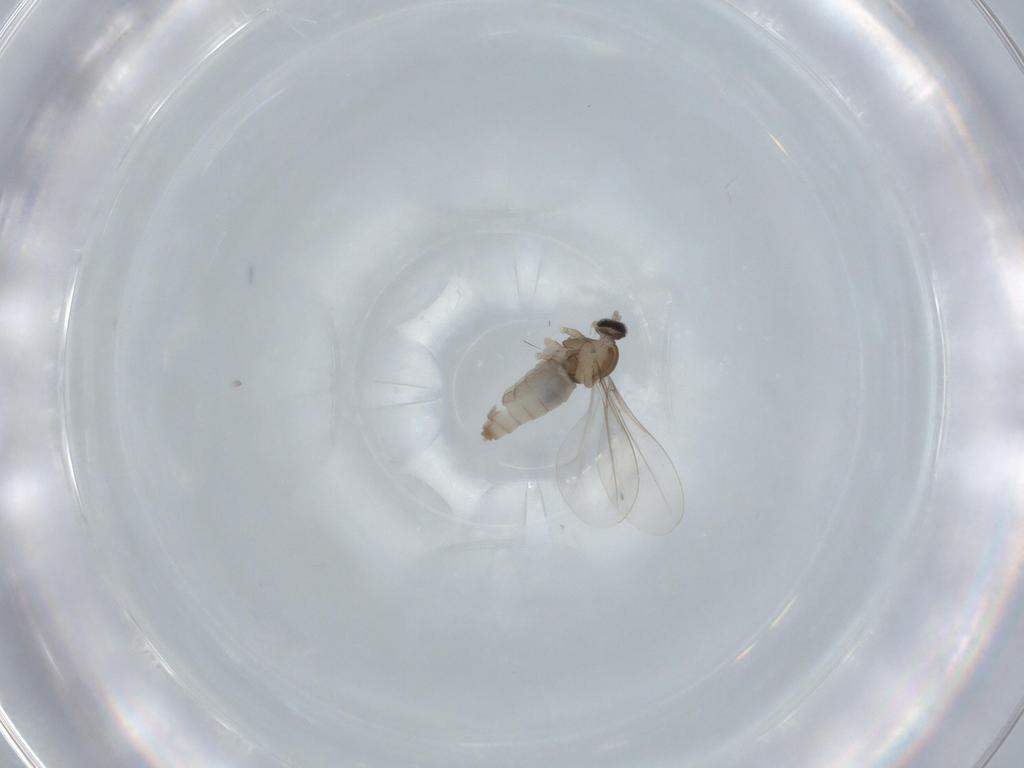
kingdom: Animalia
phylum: Arthropoda
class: Insecta
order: Diptera
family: Cecidomyiidae
